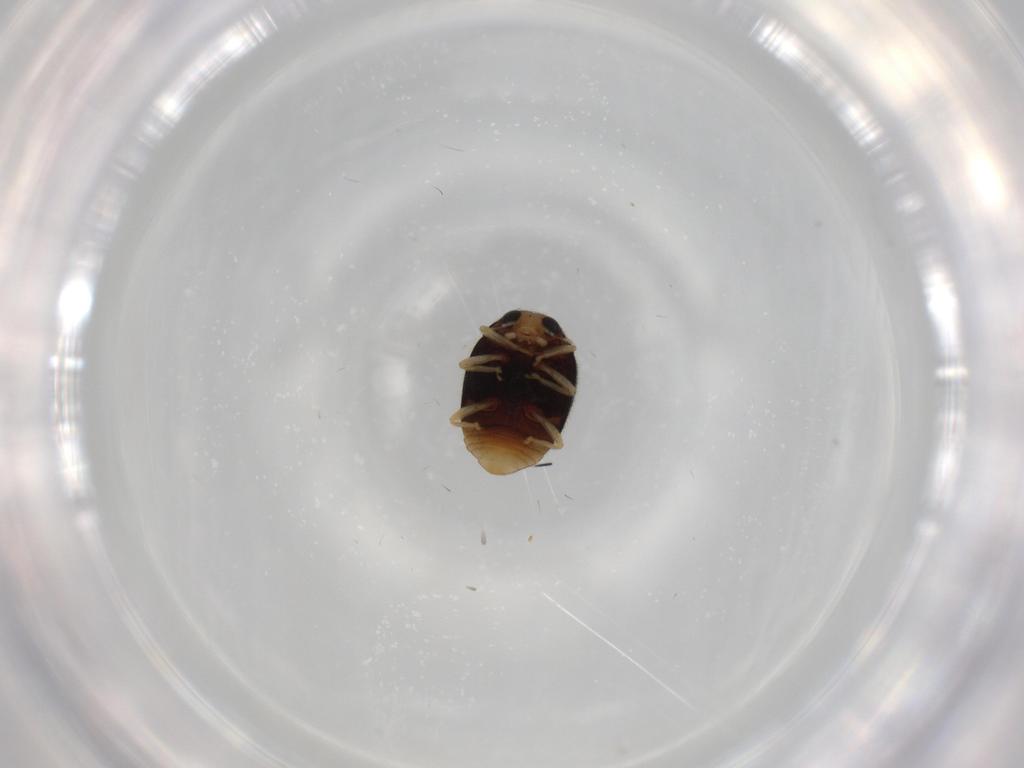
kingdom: Animalia
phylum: Arthropoda
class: Insecta
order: Coleoptera
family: Coccinellidae
